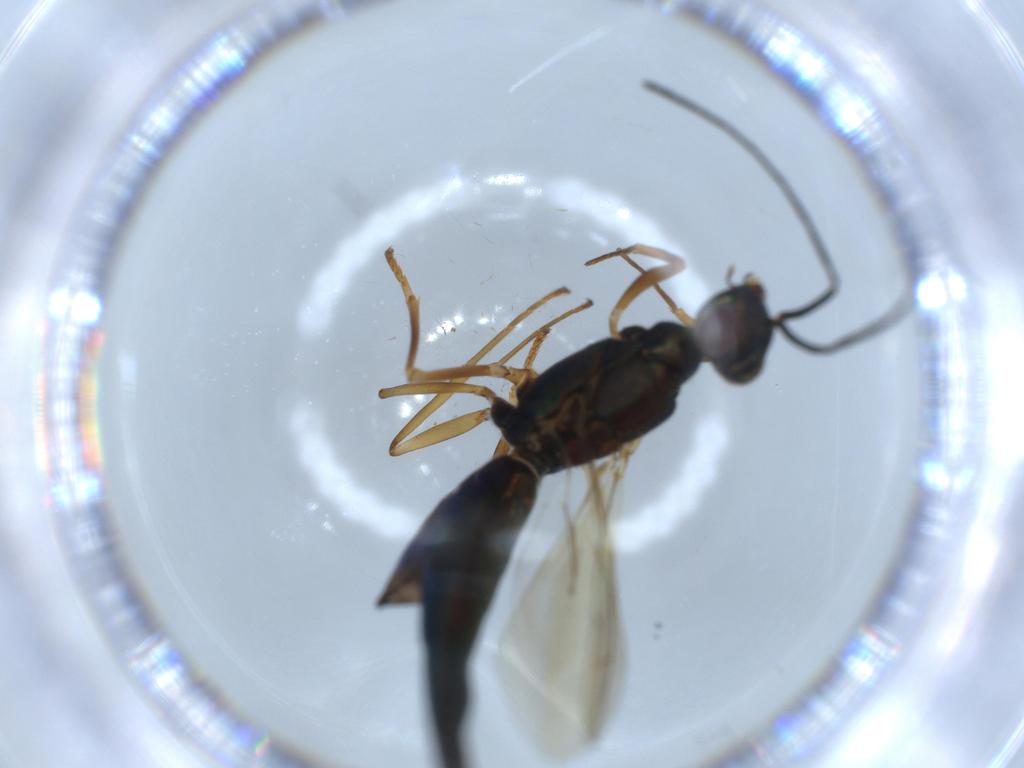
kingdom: Animalia
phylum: Arthropoda
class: Insecta
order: Hymenoptera
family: Eupelmidae
